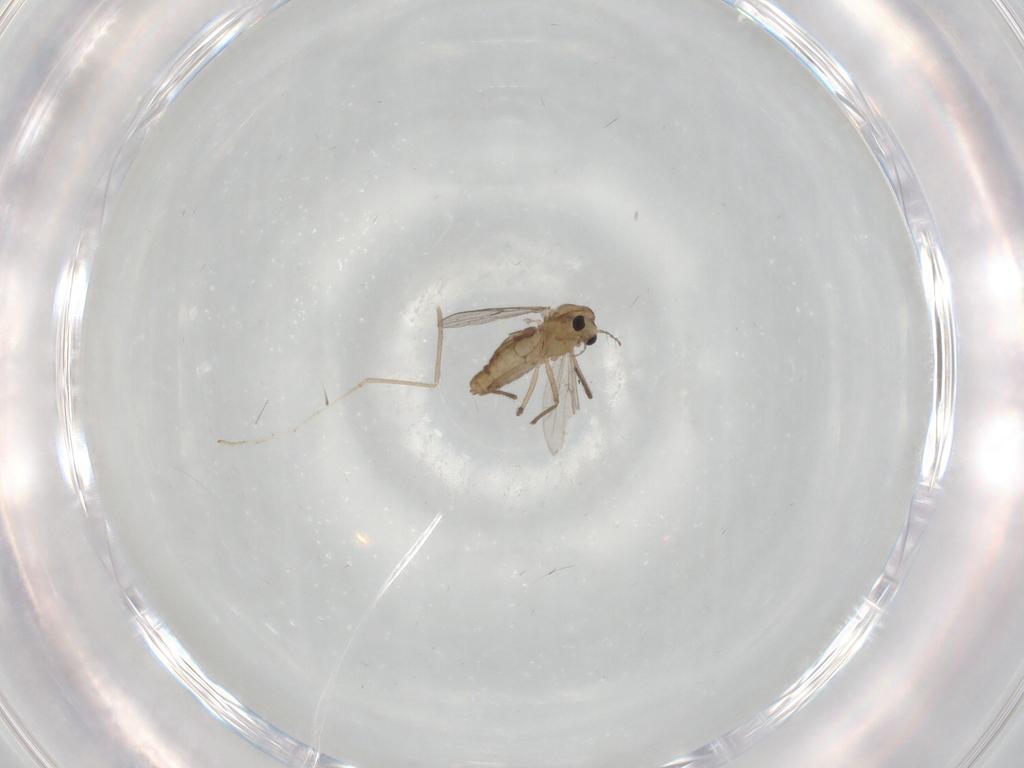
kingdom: Animalia
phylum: Arthropoda
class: Insecta
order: Diptera
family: Chironomidae
